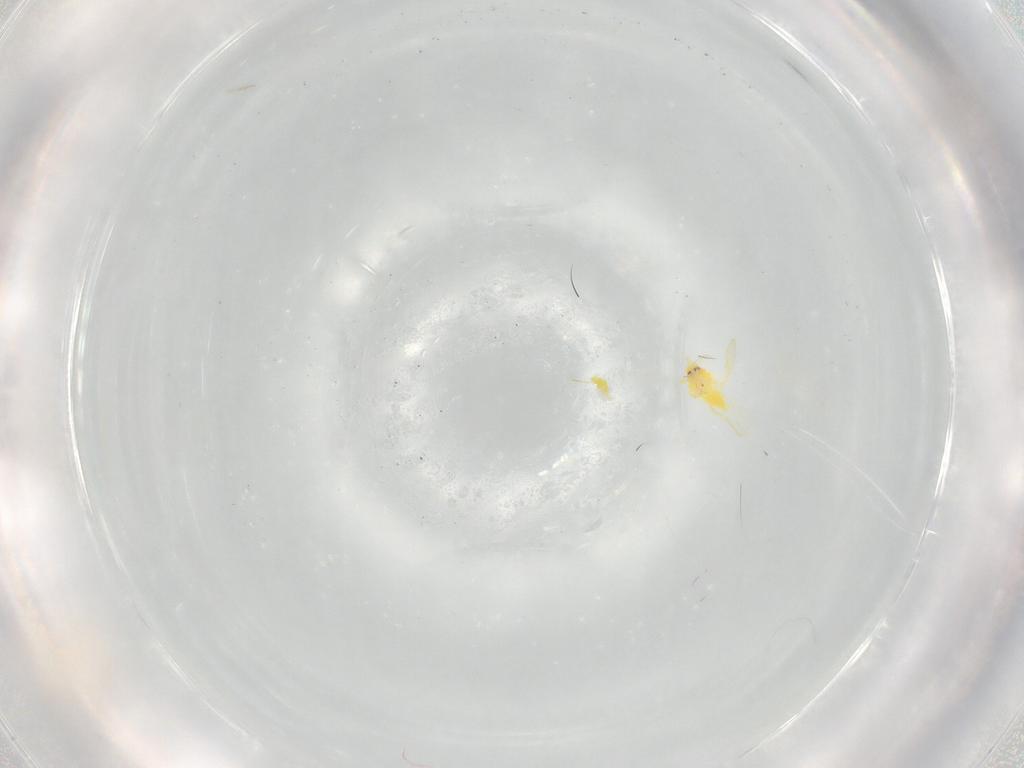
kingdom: Animalia
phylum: Arthropoda
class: Insecta
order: Hemiptera
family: Aleyrodidae
